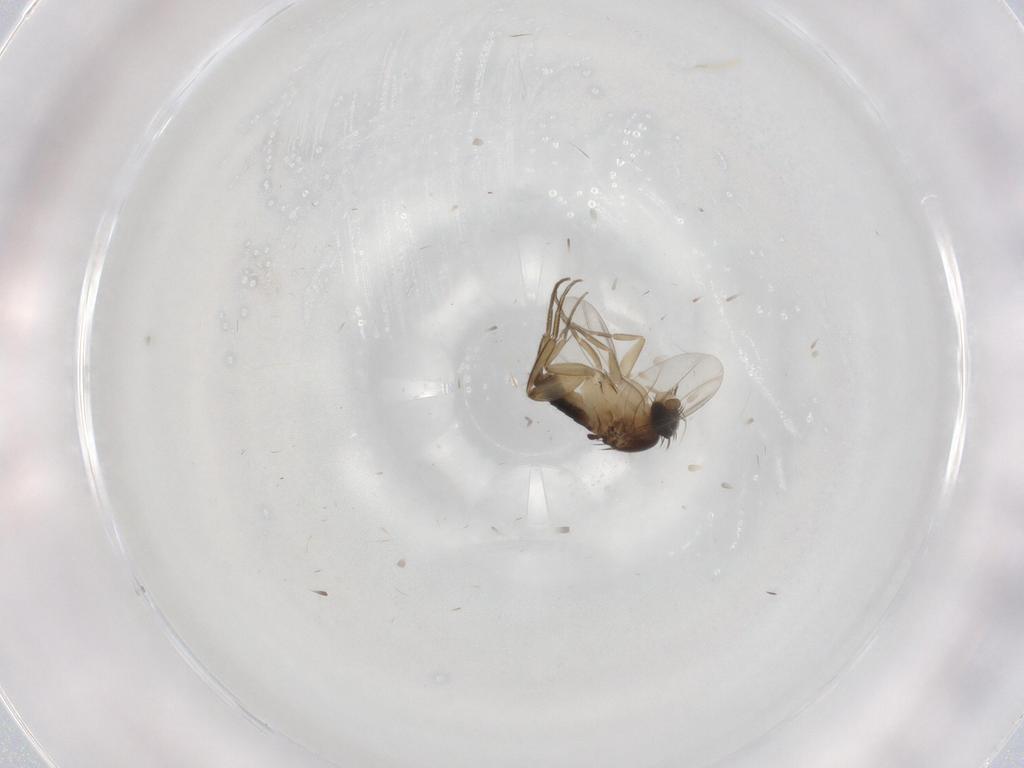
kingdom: Animalia
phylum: Arthropoda
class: Insecta
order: Diptera
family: Phoridae
